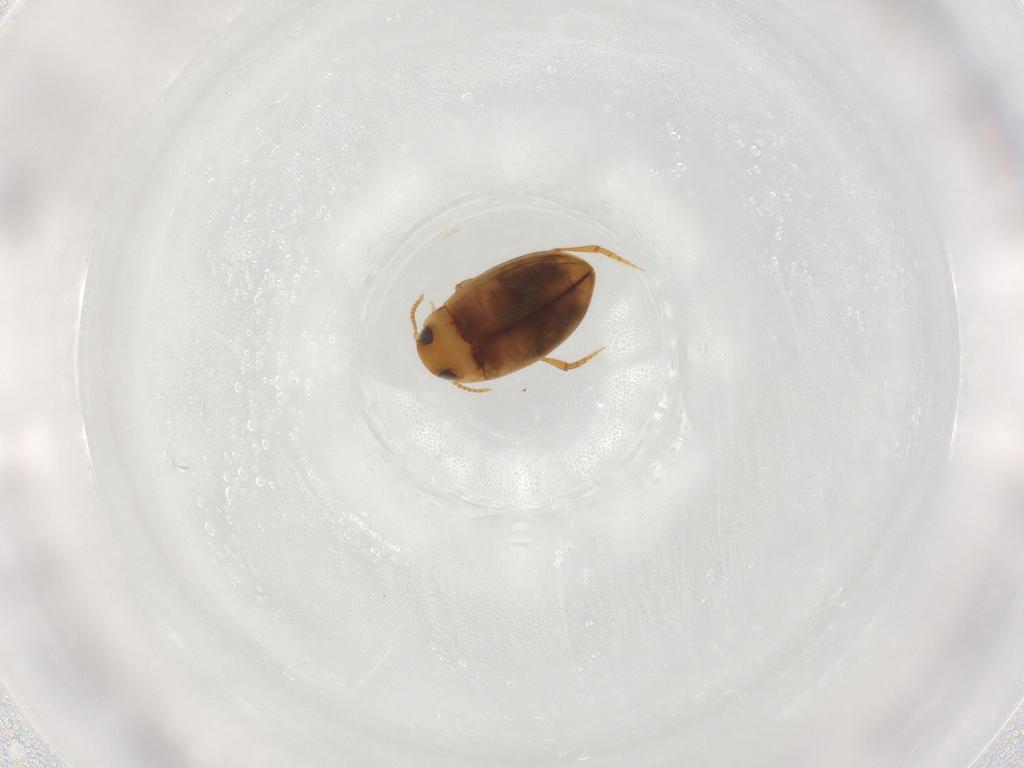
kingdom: Animalia
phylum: Arthropoda
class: Insecta
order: Coleoptera
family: Dytiscidae
